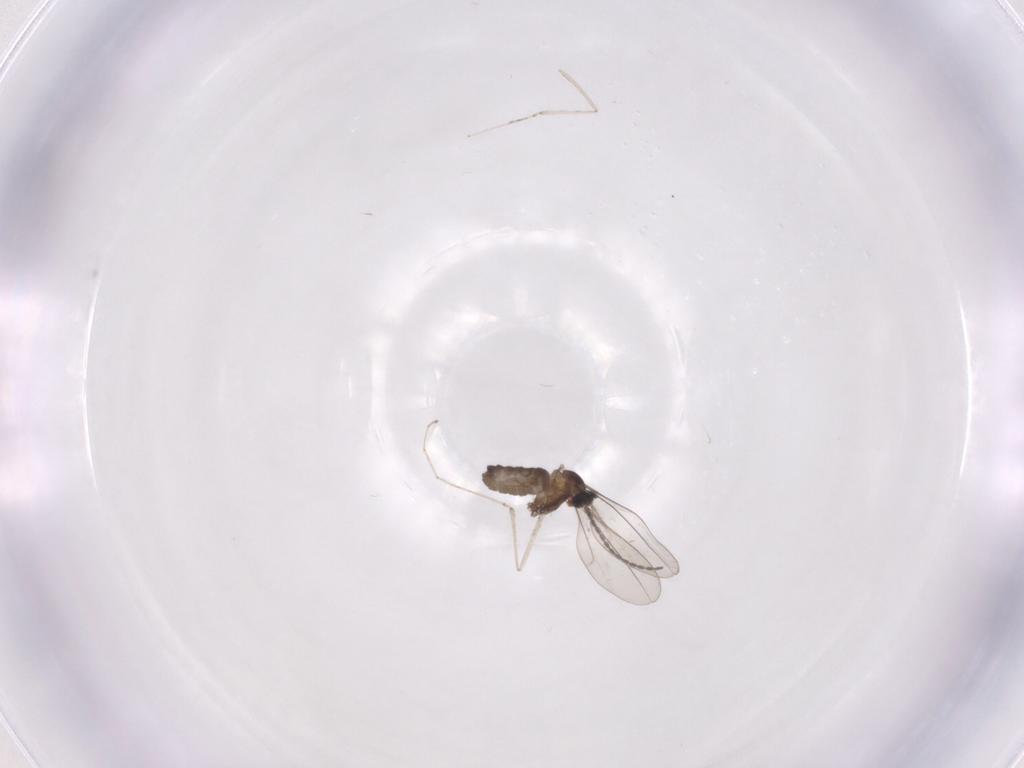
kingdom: Animalia
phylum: Arthropoda
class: Insecta
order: Diptera
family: Cecidomyiidae
